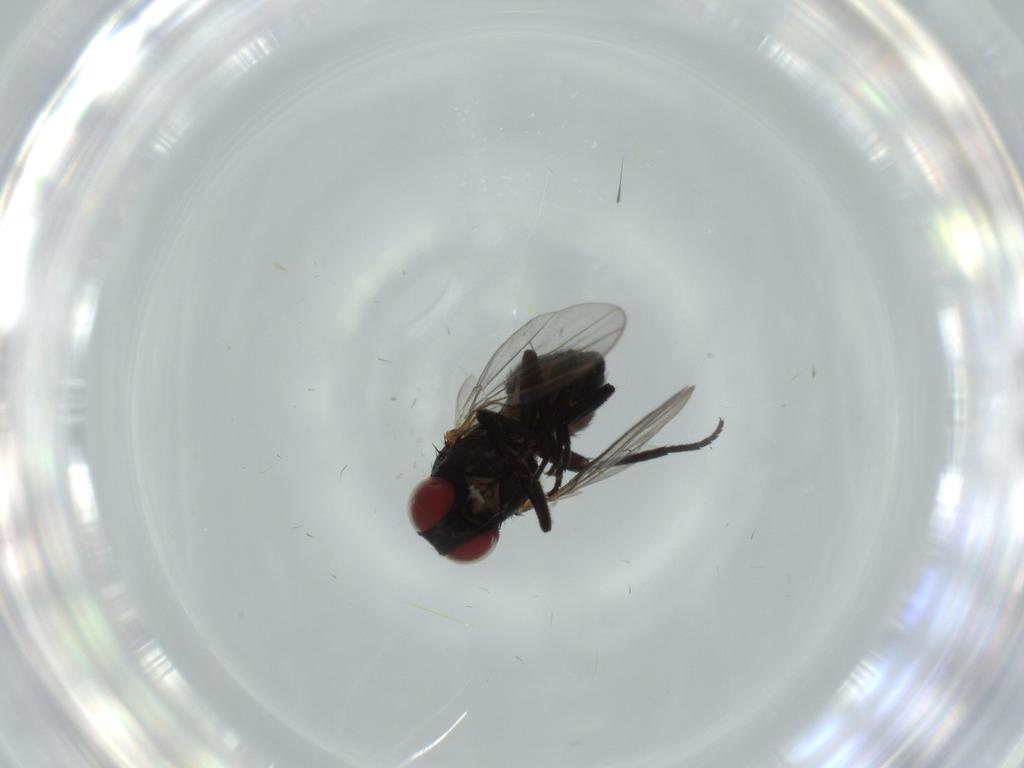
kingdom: Animalia
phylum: Arthropoda
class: Insecta
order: Diptera
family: Agromyzidae
